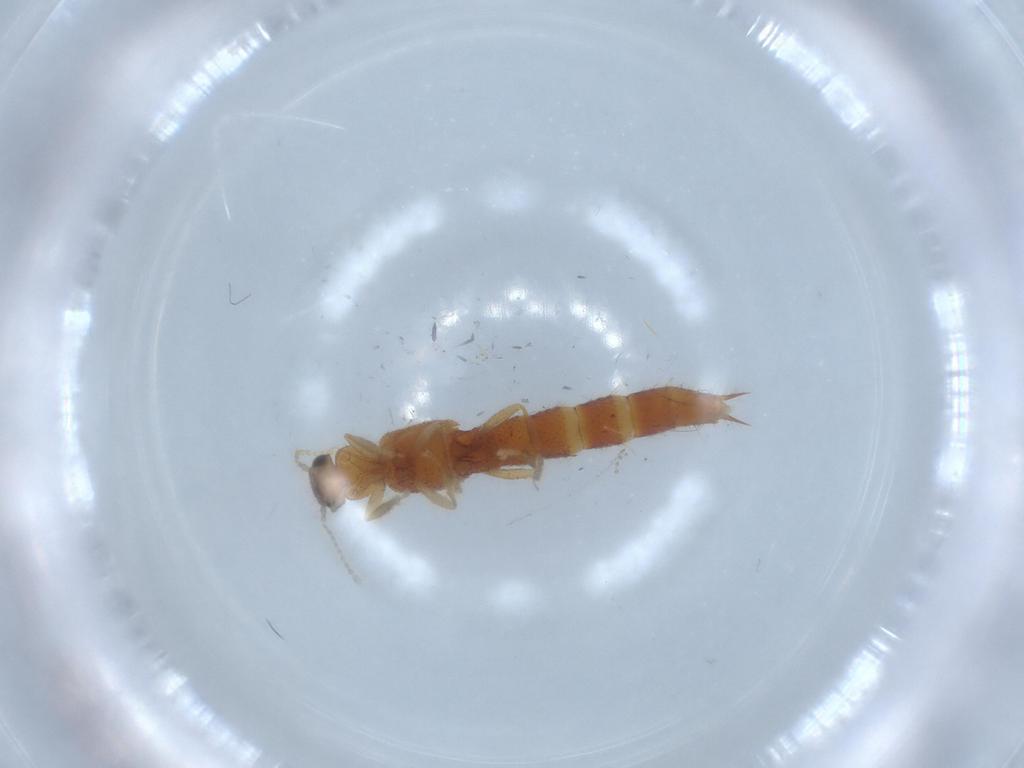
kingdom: Animalia
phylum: Arthropoda
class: Insecta
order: Coleoptera
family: Staphylinidae
